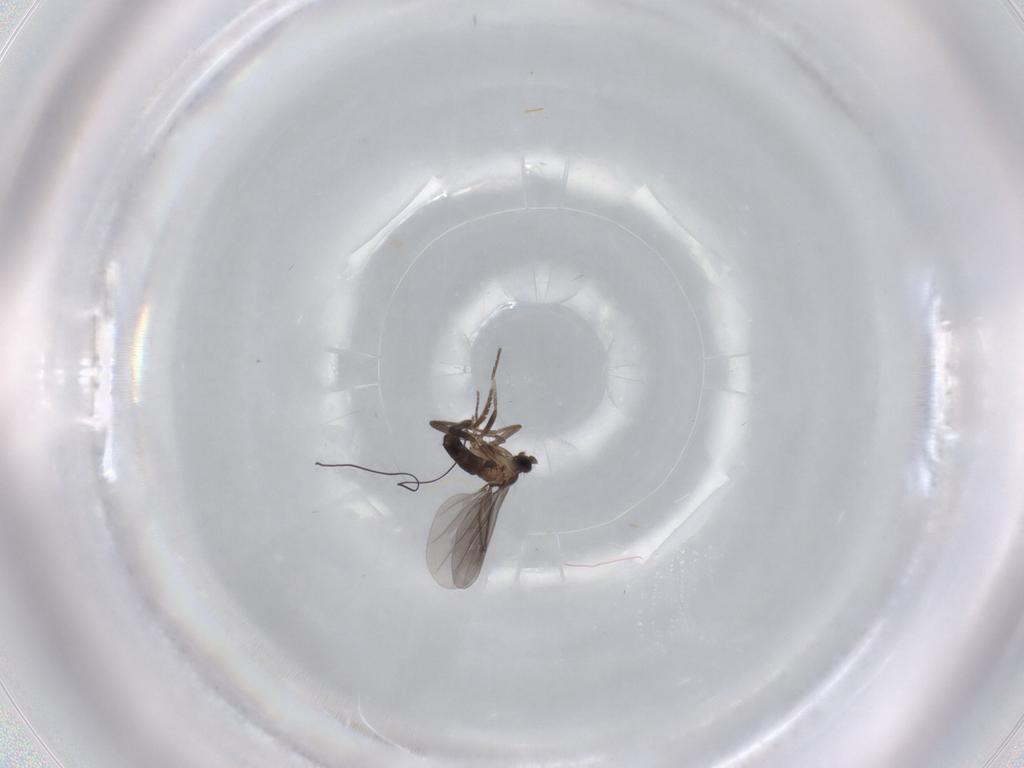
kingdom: Animalia
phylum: Arthropoda
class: Insecta
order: Diptera
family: Phoridae
